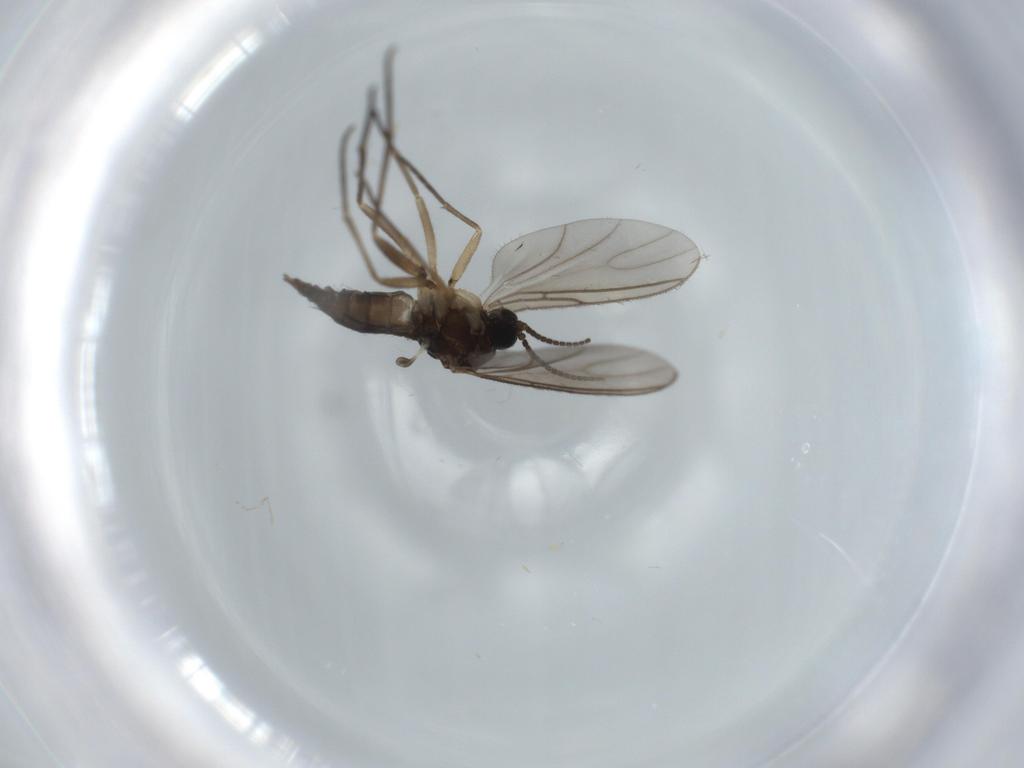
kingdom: Animalia
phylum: Arthropoda
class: Insecta
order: Diptera
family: Sciaridae
